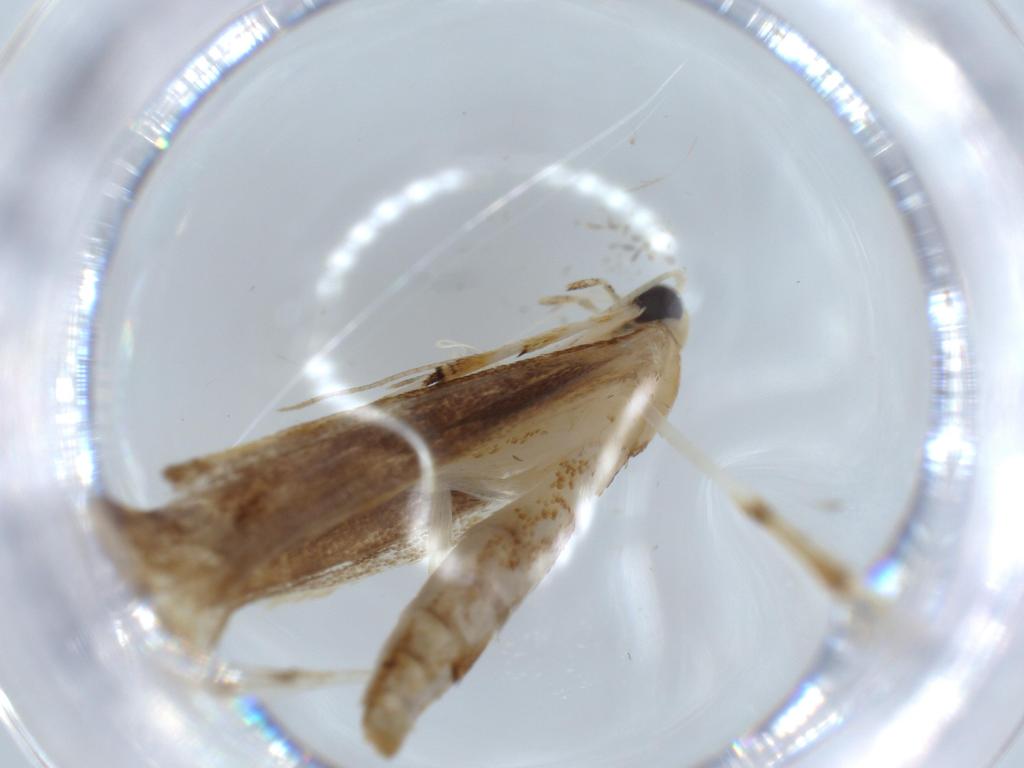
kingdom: Animalia
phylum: Arthropoda
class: Insecta
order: Lepidoptera
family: Pterophoridae
